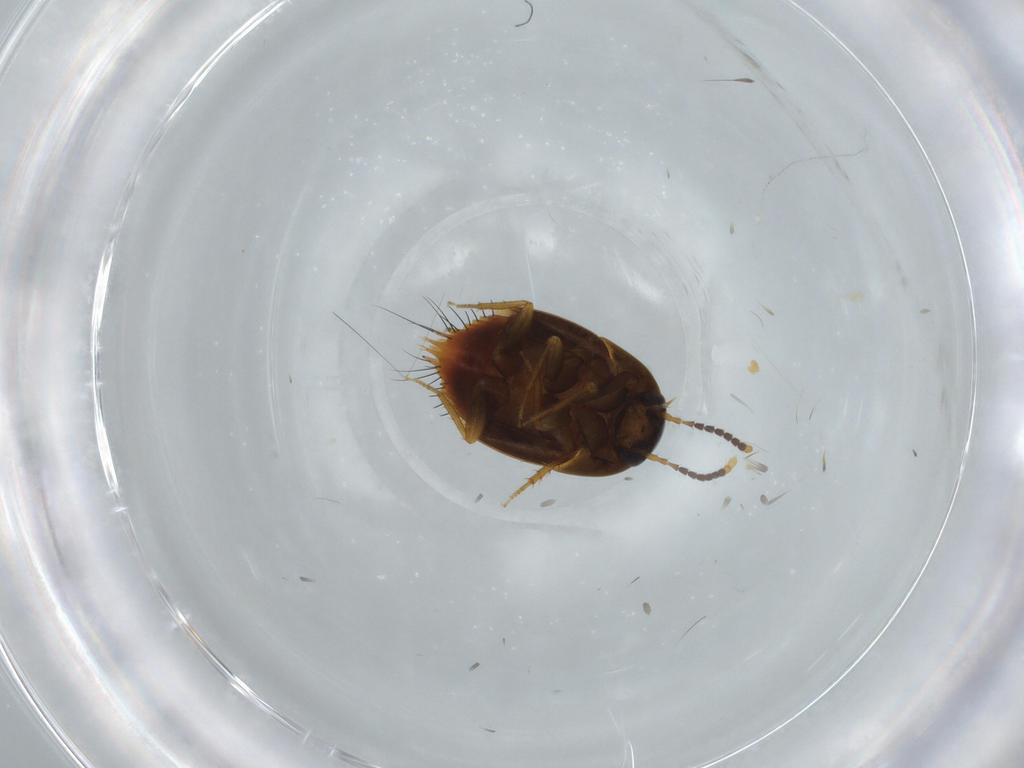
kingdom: Animalia
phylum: Arthropoda
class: Insecta
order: Coleoptera
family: Staphylinidae
